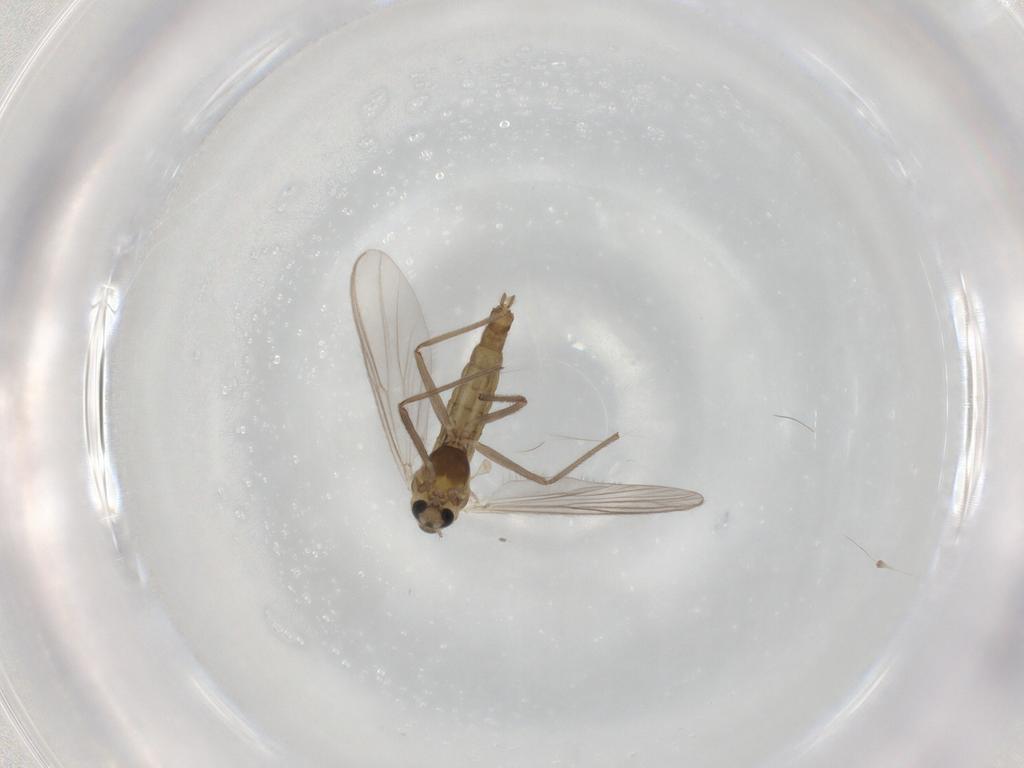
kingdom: Animalia
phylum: Arthropoda
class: Insecta
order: Diptera
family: Chironomidae
